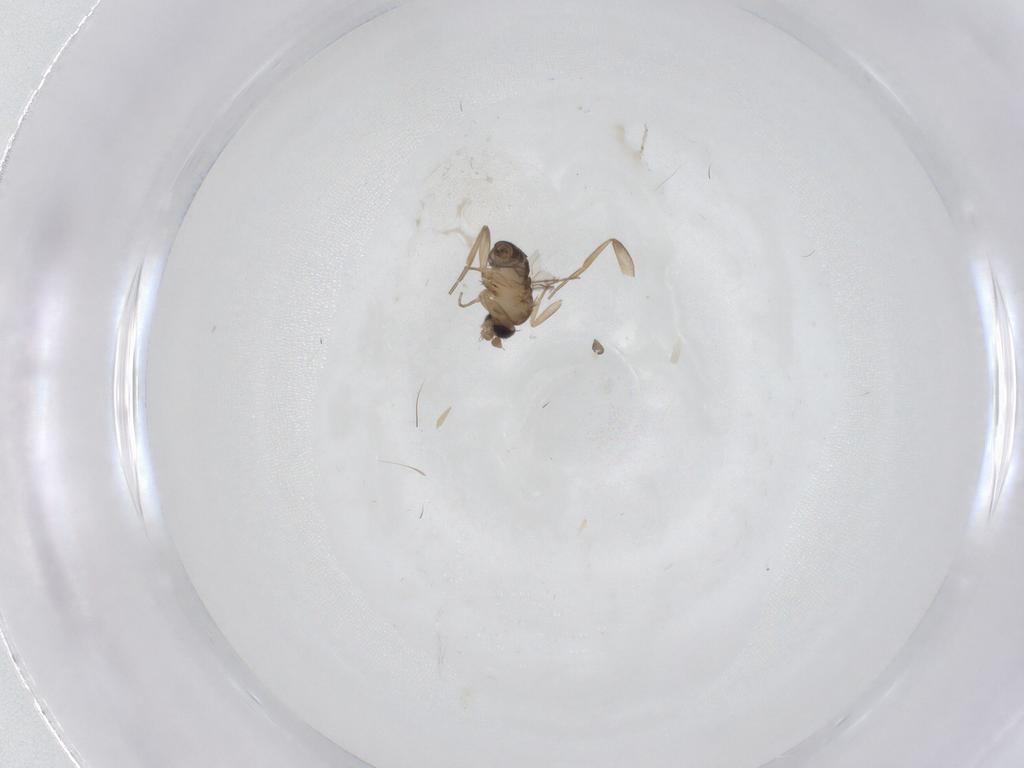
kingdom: Animalia
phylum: Arthropoda
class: Insecta
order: Diptera
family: Phoridae
